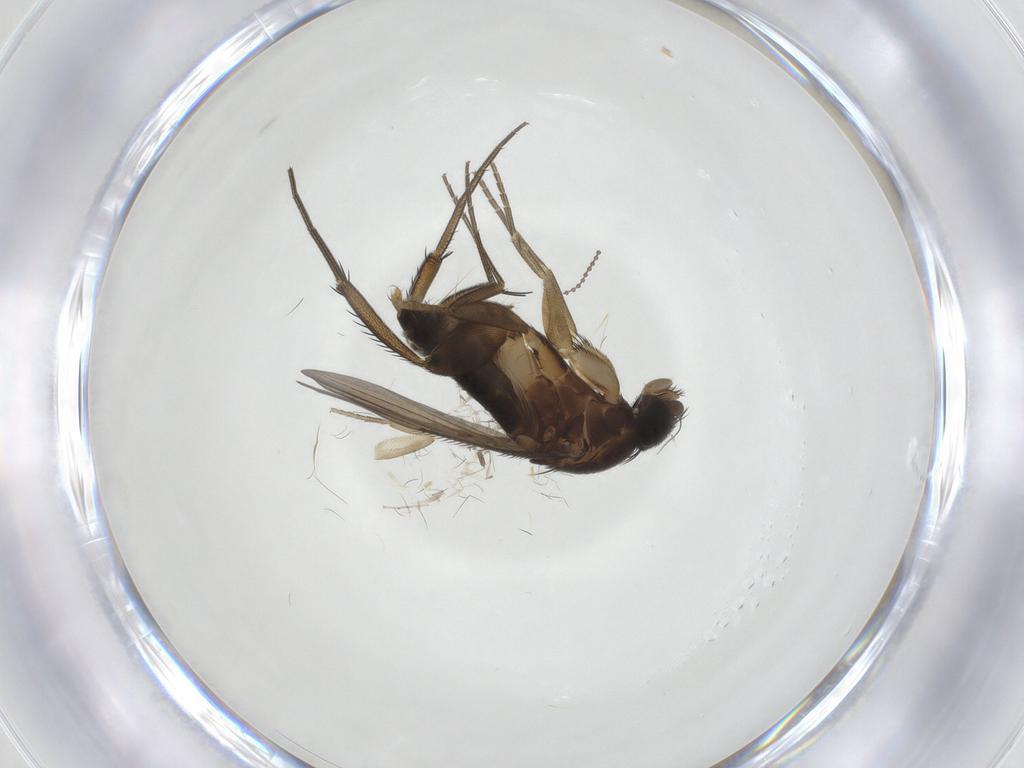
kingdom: Animalia
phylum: Arthropoda
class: Insecta
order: Diptera
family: Phoridae
